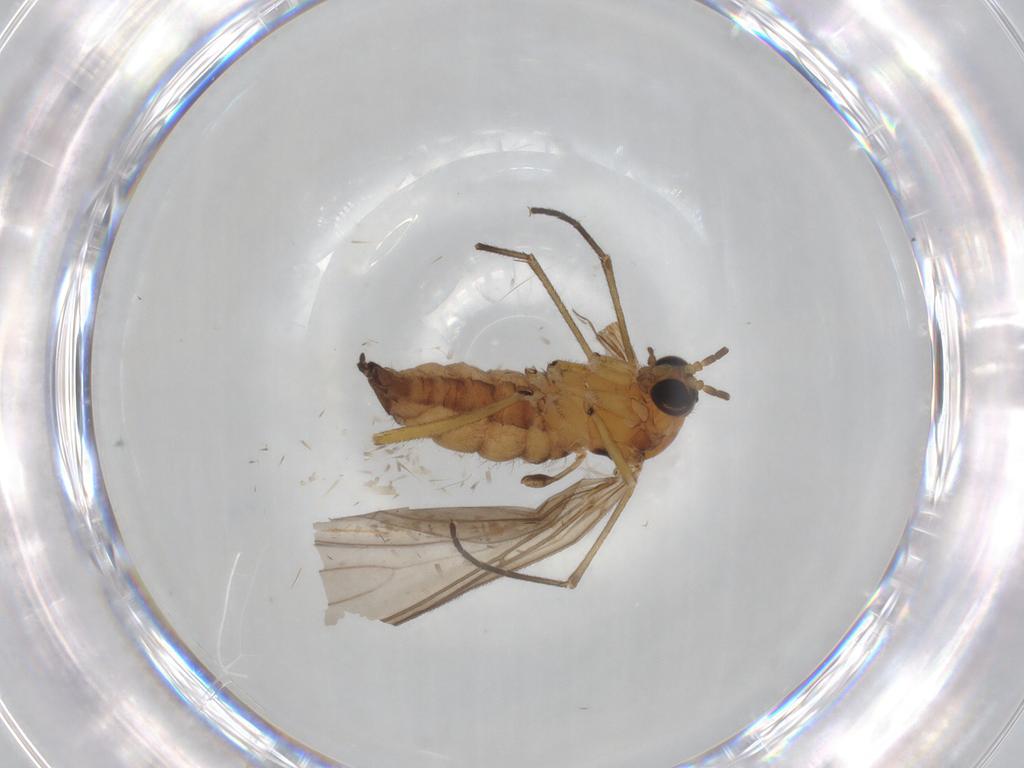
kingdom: Animalia
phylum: Arthropoda
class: Insecta
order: Diptera
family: Sciaridae
